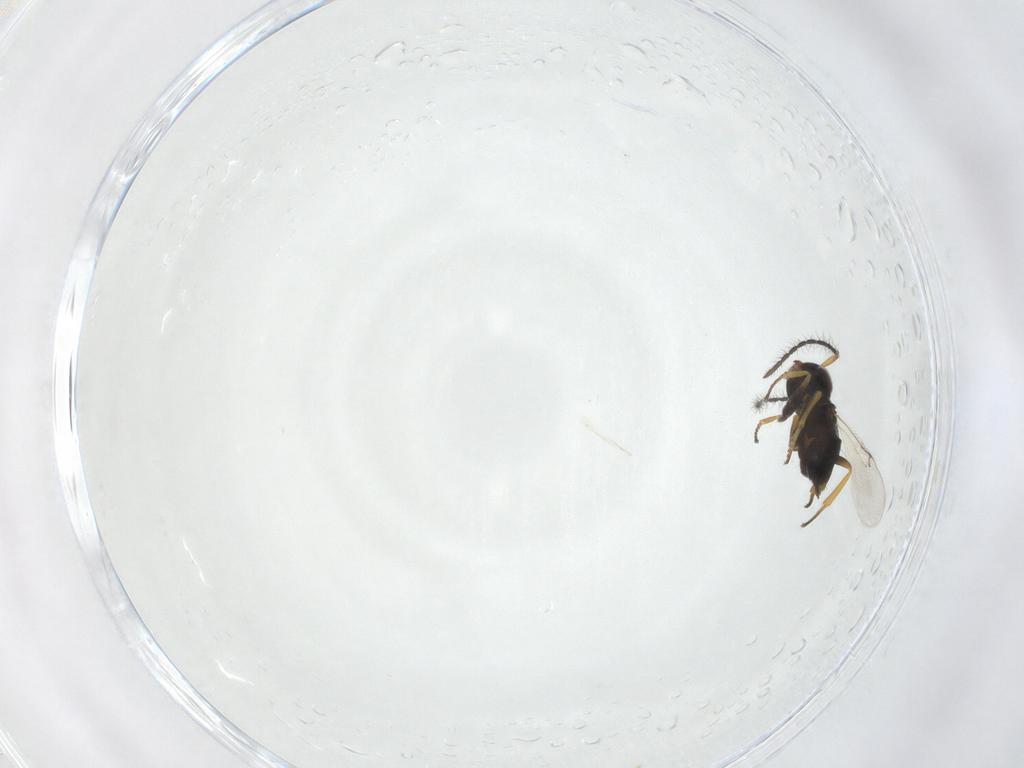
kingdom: Animalia
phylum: Arthropoda
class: Insecta
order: Hymenoptera
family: Encyrtidae
